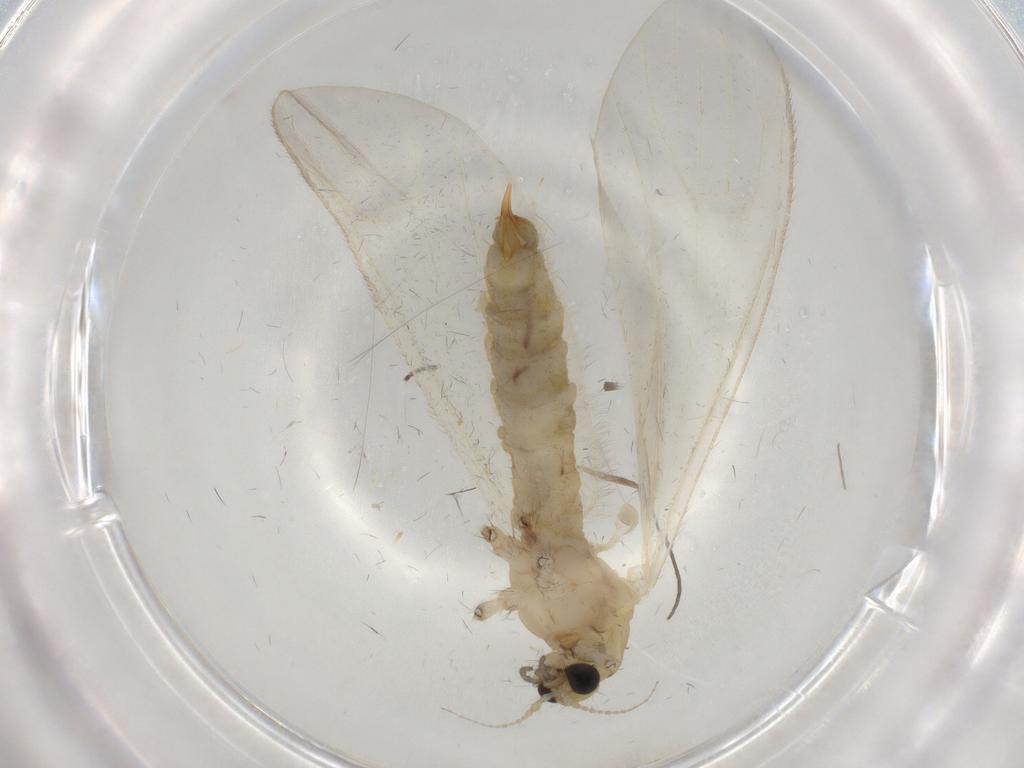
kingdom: Animalia
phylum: Arthropoda
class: Insecta
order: Diptera
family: Limoniidae
